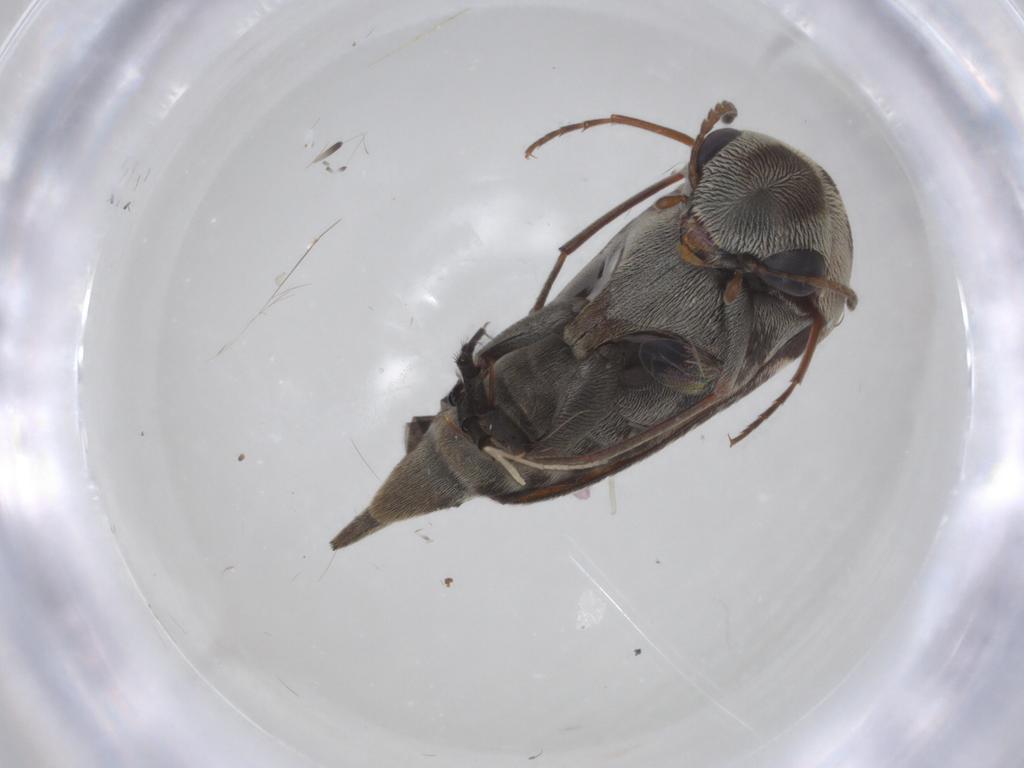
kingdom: Animalia
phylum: Arthropoda
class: Insecta
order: Coleoptera
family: Mordellidae
